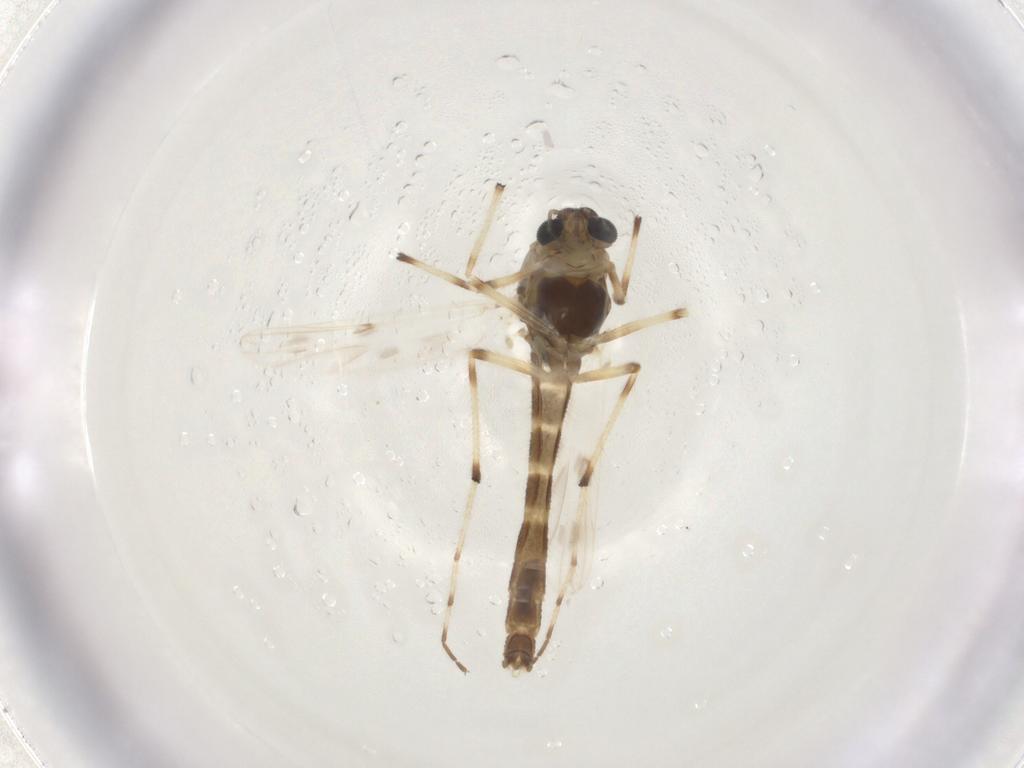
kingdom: Animalia
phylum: Arthropoda
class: Insecta
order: Diptera
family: Chironomidae
